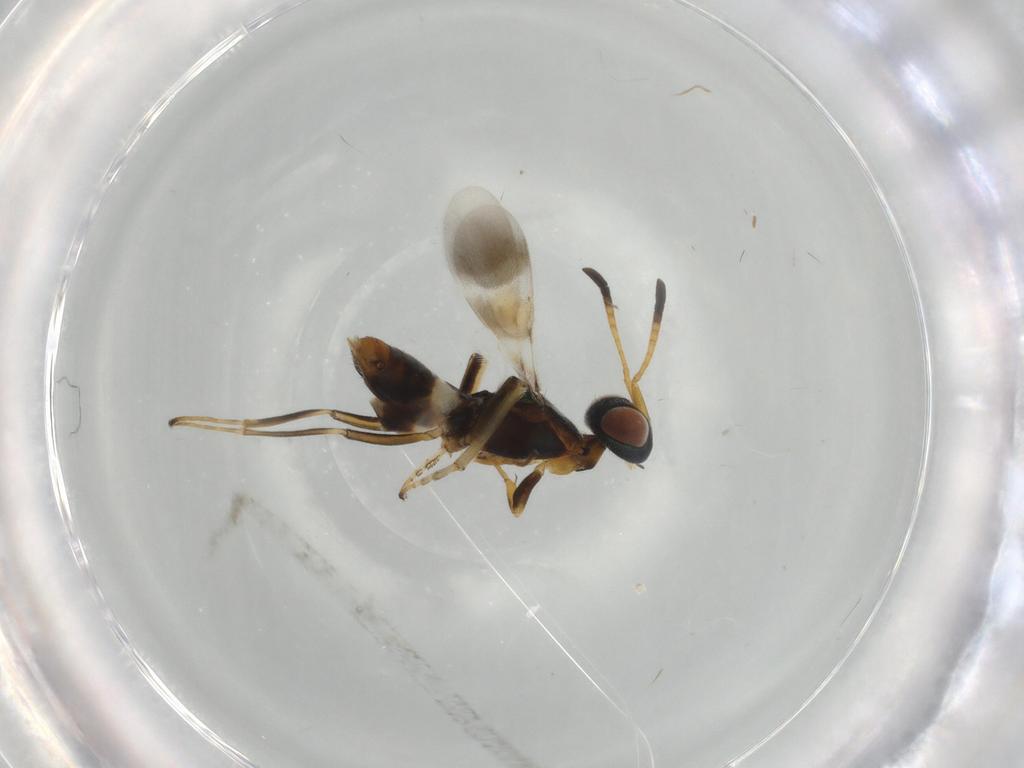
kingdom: Animalia
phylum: Arthropoda
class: Insecta
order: Hymenoptera
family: Eupelmidae
